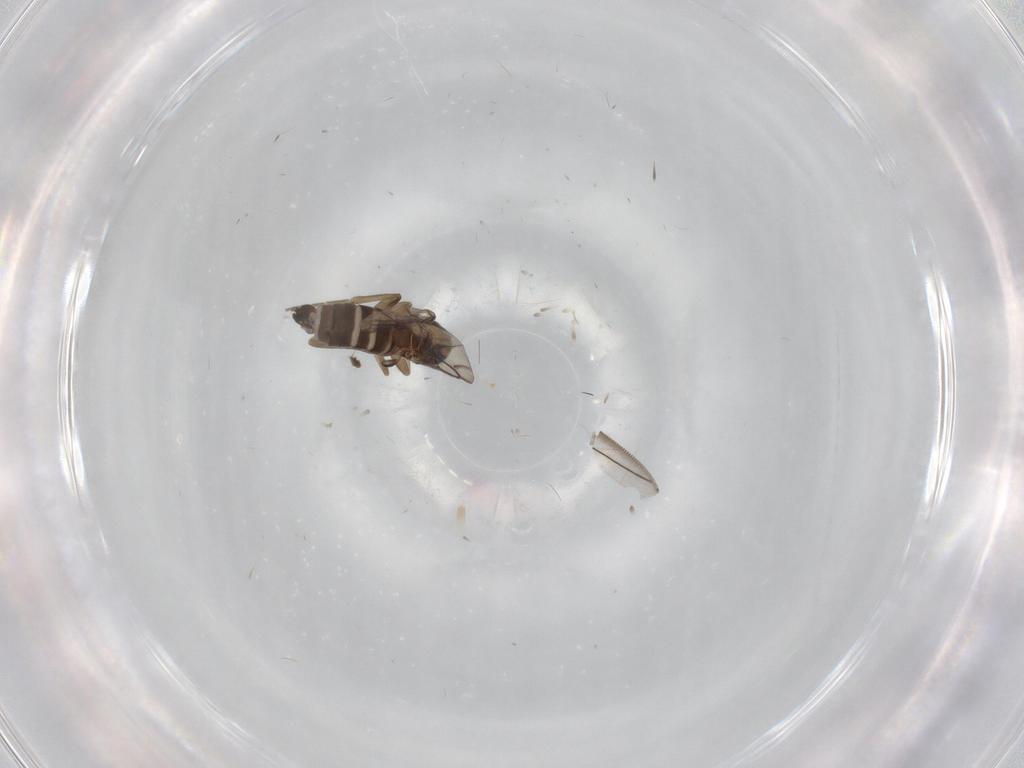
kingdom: Animalia
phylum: Arthropoda
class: Insecta
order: Diptera
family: Phoridae
